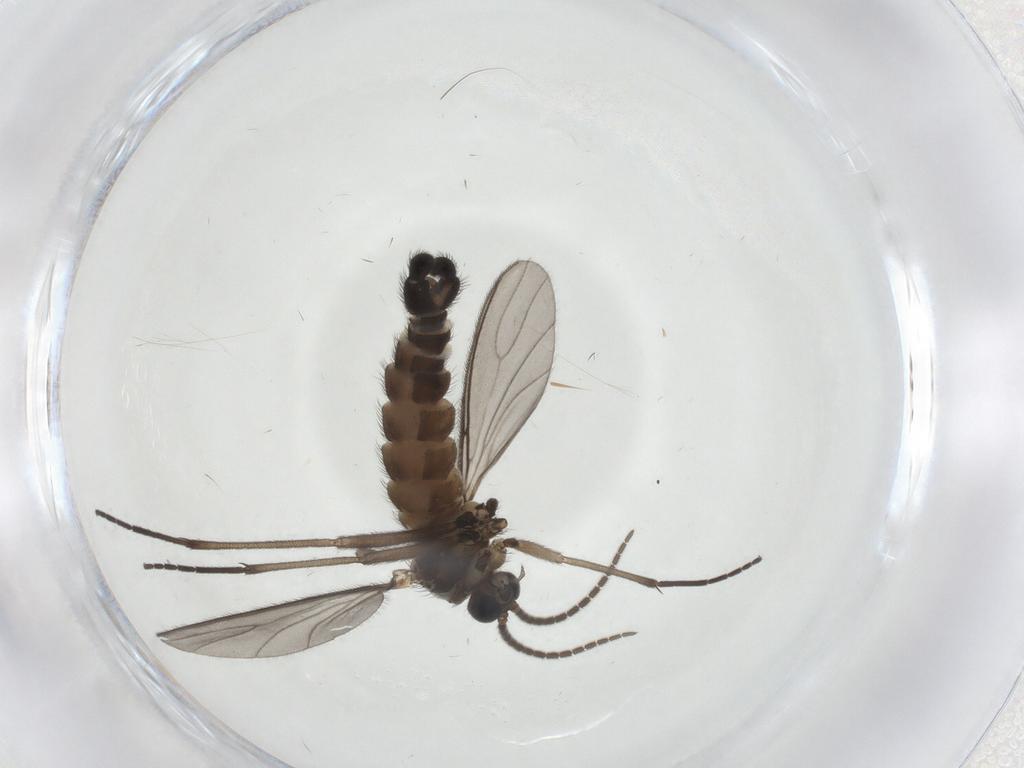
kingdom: Animalia
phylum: Arthropoda
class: Insecta
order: Diptera
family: Sciaridae
